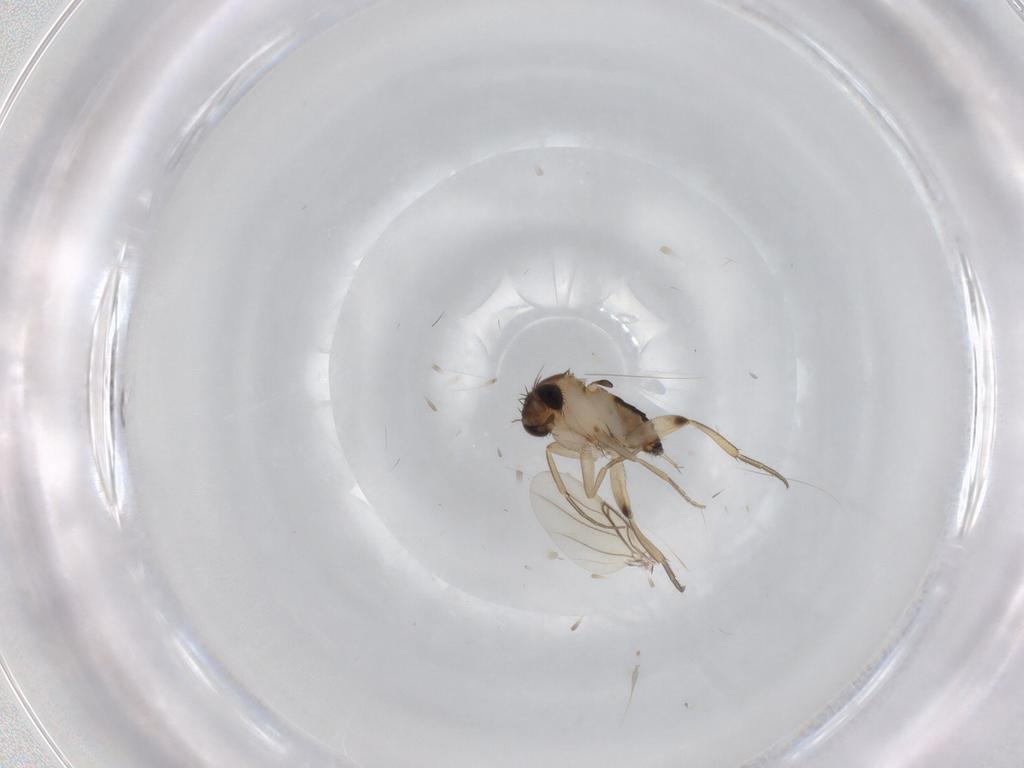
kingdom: Animalia
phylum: Arthropoda
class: Insecta
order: Diptera
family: Phoridae
